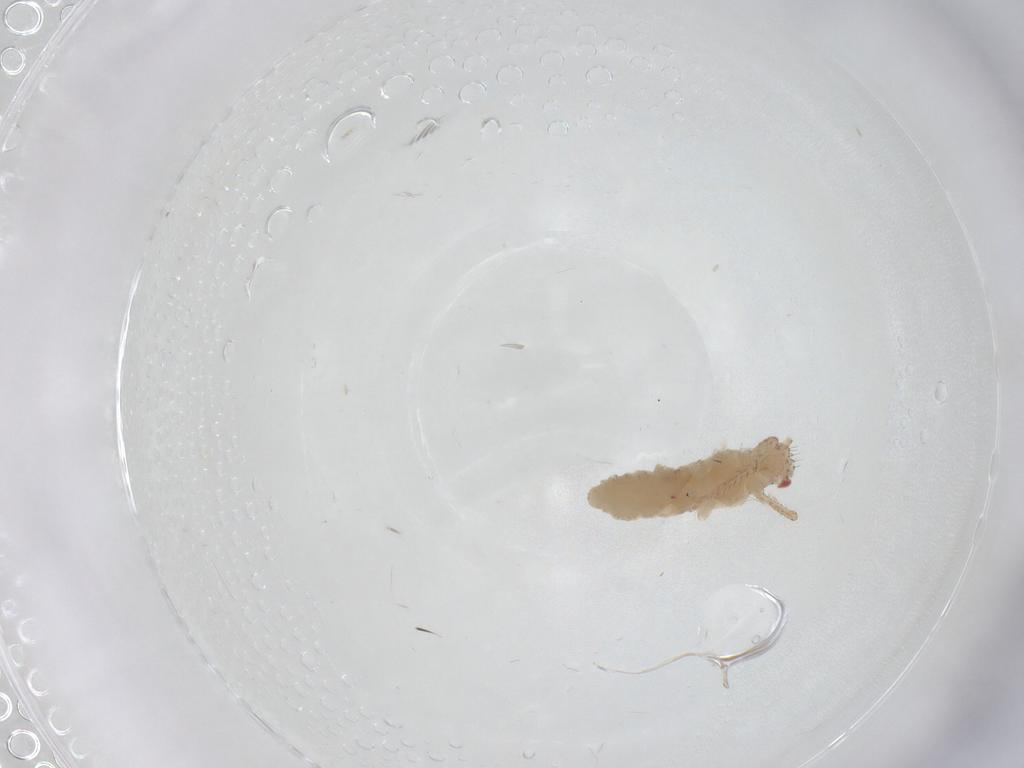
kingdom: Animalia
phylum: Arthropoda
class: Insecta
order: Hemiptera
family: Aphididae
